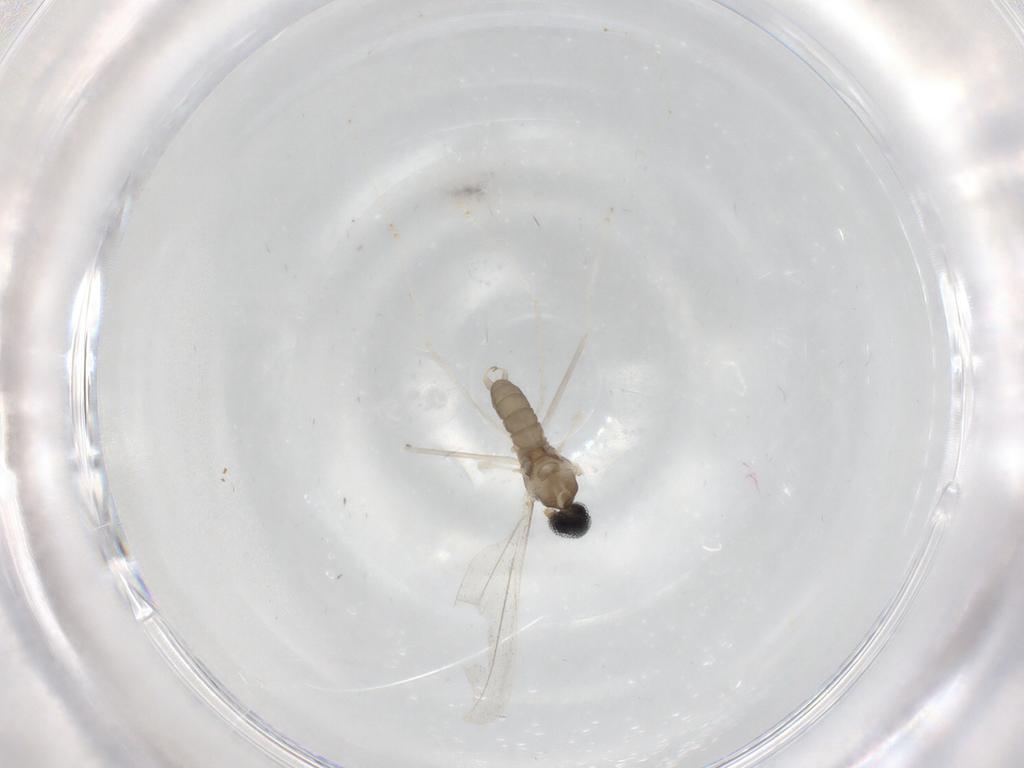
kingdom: Animalia
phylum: Arthropoda
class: Insecta
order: Diptera
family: Cecidomyiidae
